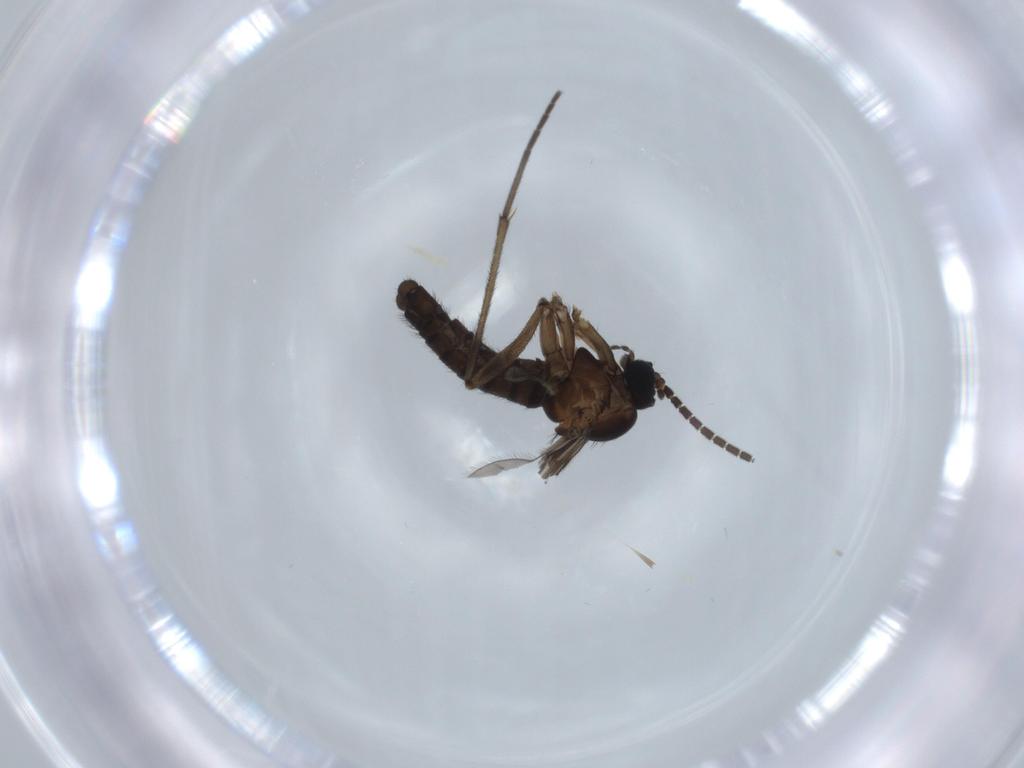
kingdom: Animalia
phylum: Arthropoda
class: Insecta
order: Diptera
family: Sciaridae
